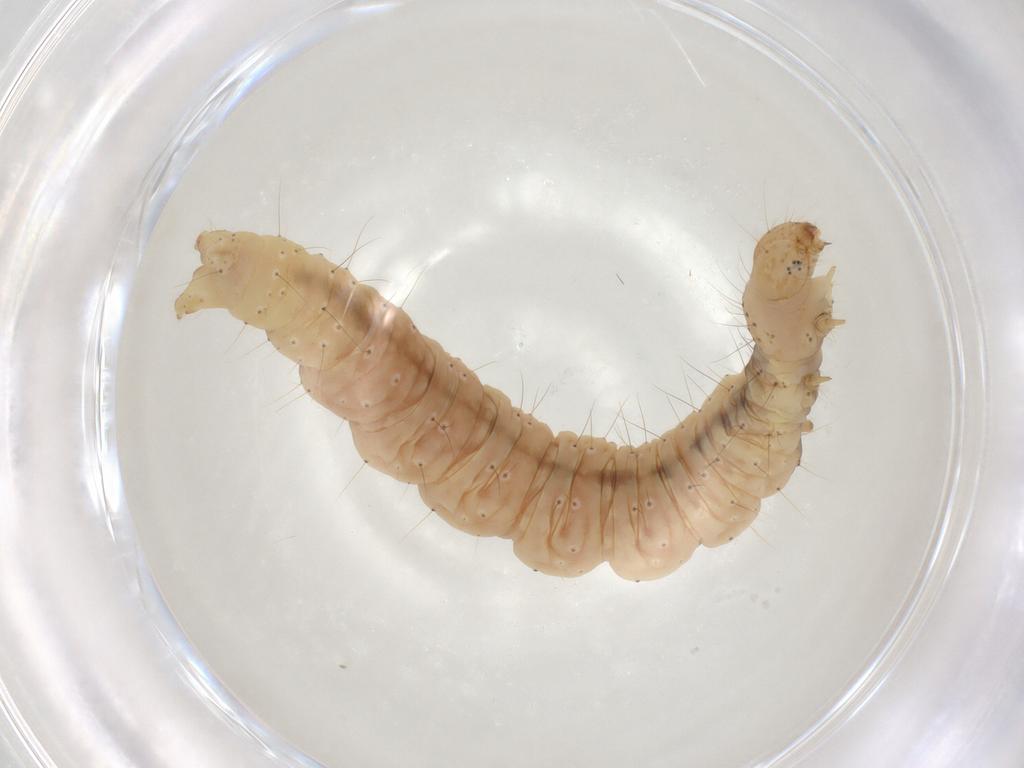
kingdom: Animalia
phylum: Arthropoda
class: Insecta
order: Lepidoptera
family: Yponomeutidae
